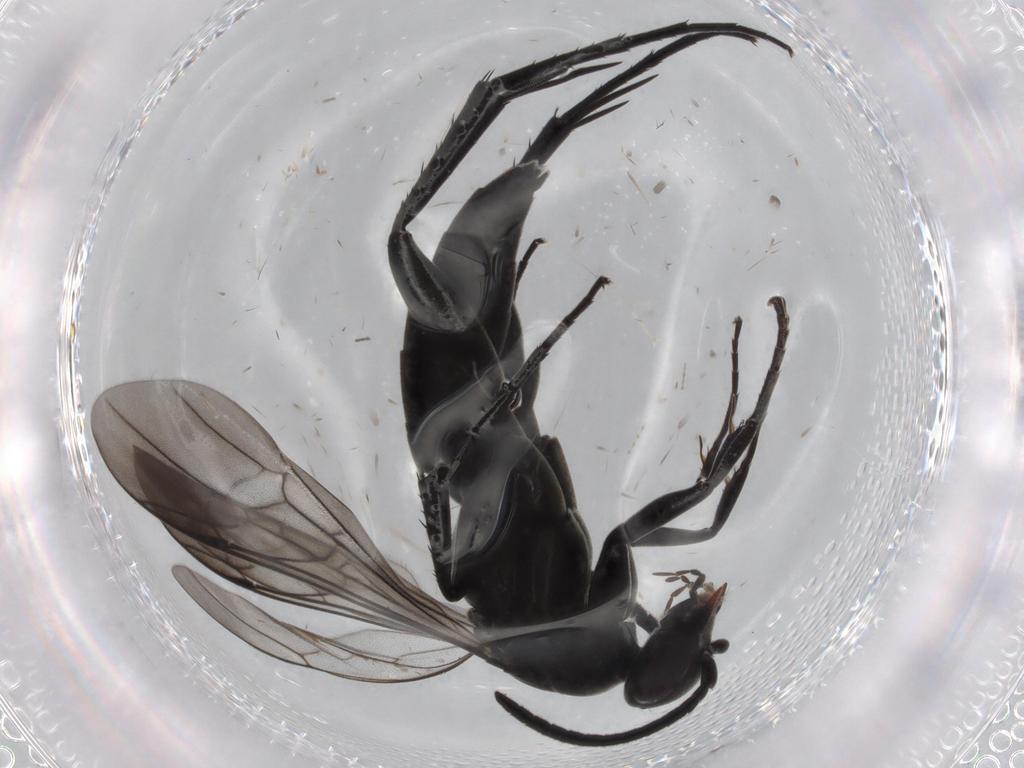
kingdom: Animalia
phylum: Arthropoda
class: Insecta
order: Hymenoptera
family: Pompilidae
